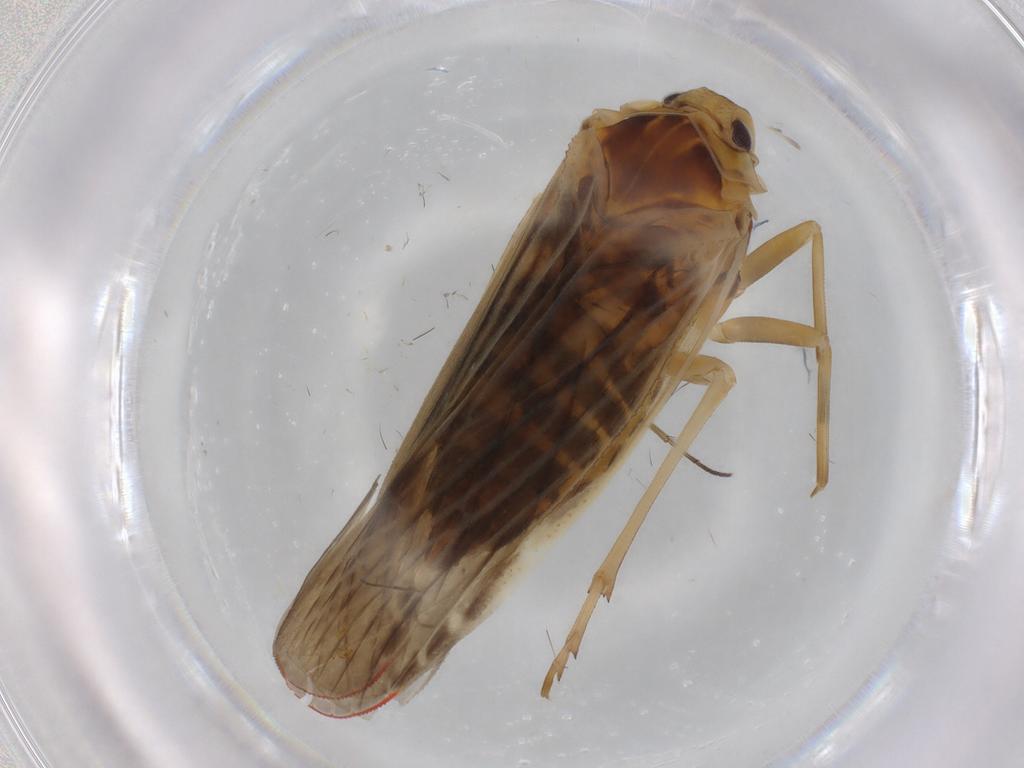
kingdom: Animalia
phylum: Arthropoda
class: Insecta
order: Hemiptera
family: Derbidae
